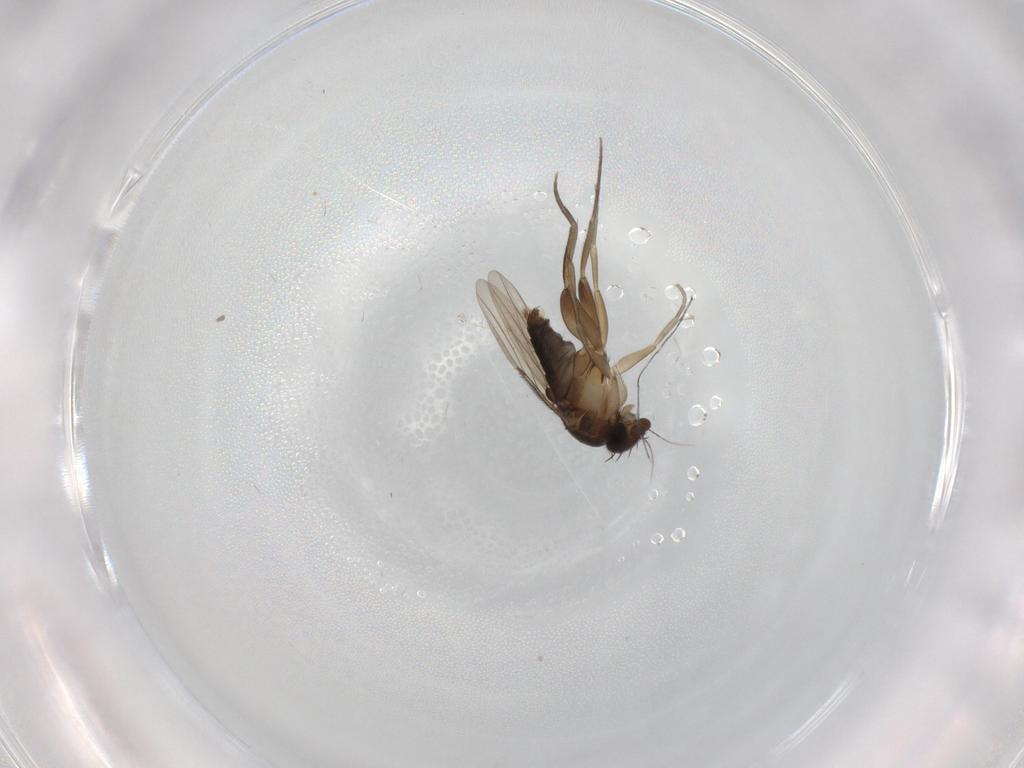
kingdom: Animalia
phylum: Arthropoda
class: Insecta
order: Diptera
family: Phoridae
